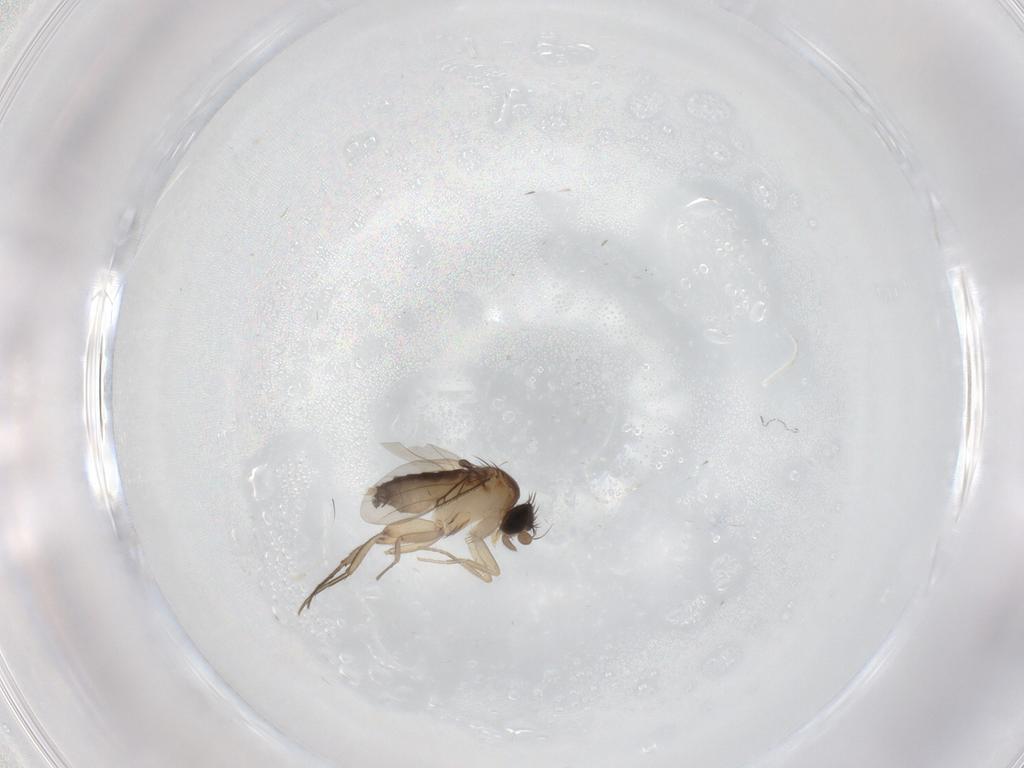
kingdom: Animalia
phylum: Arthropoda
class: Insecta
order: Diptera
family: Phoridae
